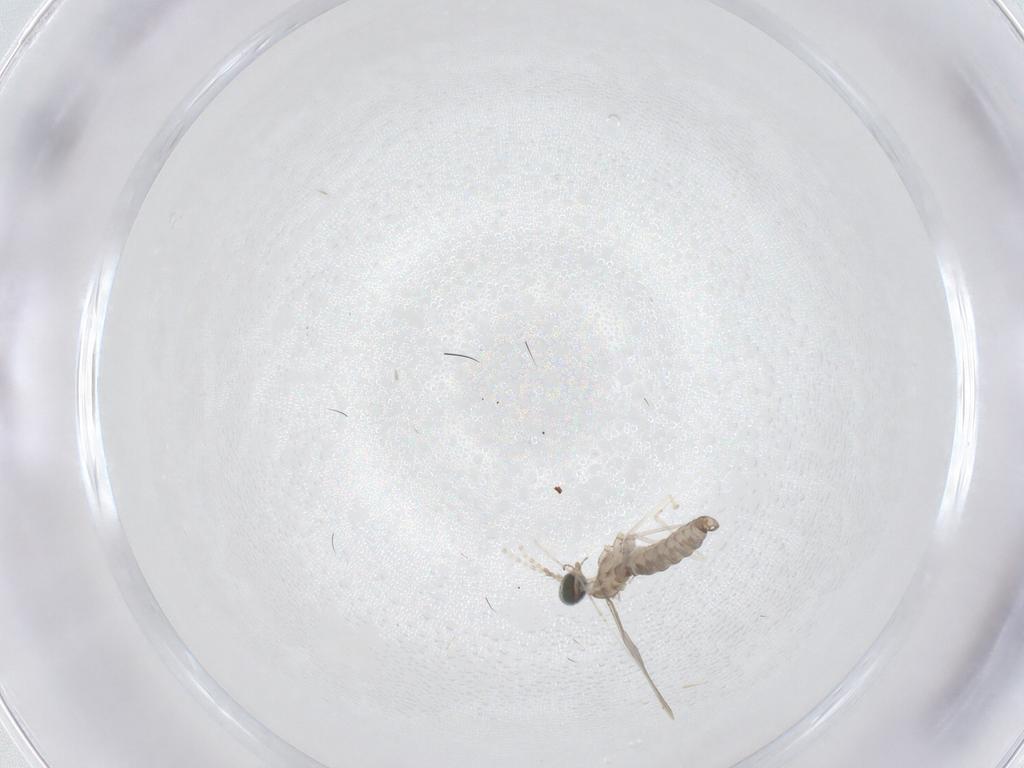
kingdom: Animalia
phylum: Arthropoda
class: Insecta
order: Diptera
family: Cecidomyiidae
